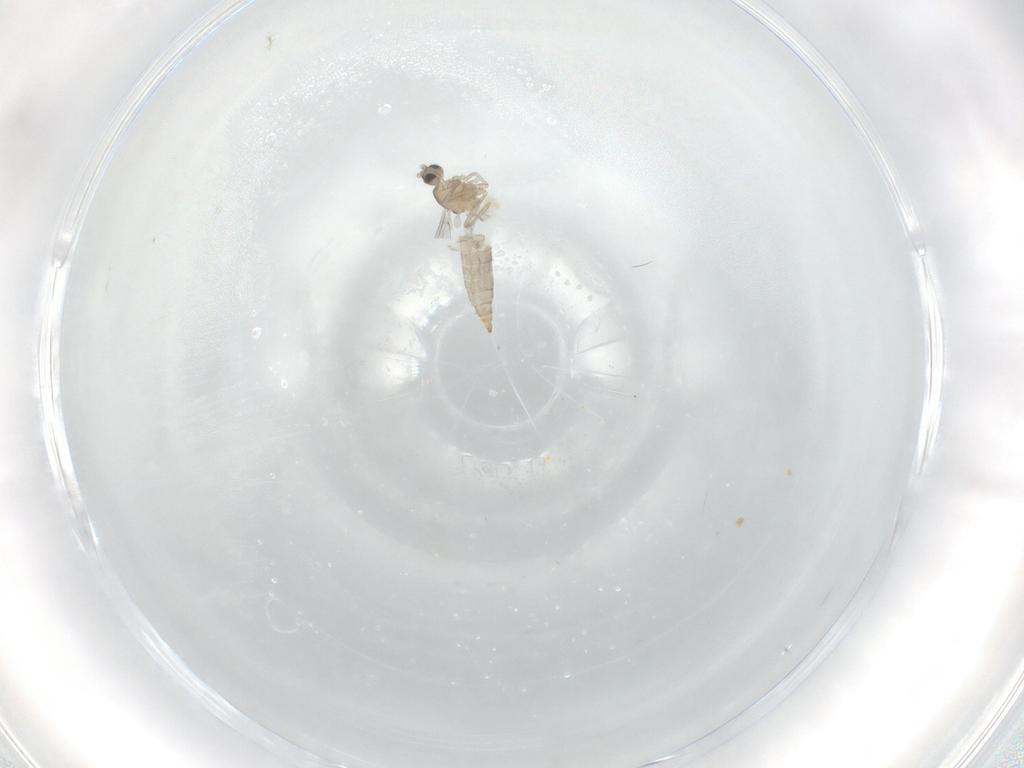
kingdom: Animalia
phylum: Arthropoda
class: Insecta
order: Diptera
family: Cecidomyiidae
